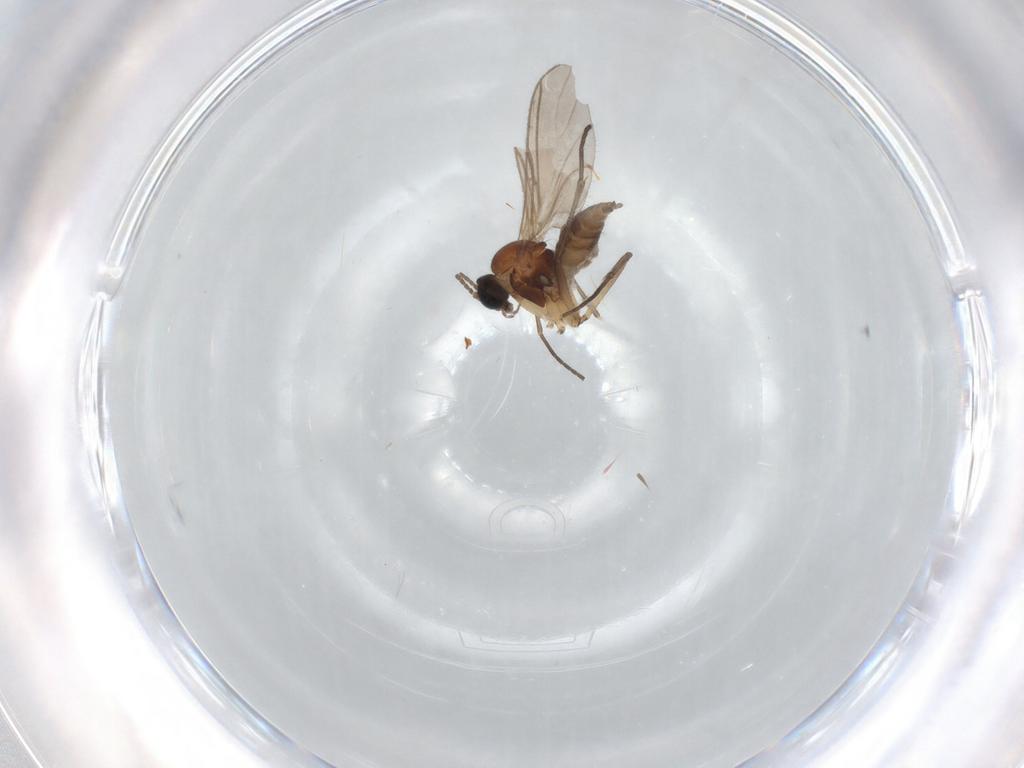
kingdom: Animalia
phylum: Arthropoda
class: Insecta
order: Diptera
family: Sciaridae
